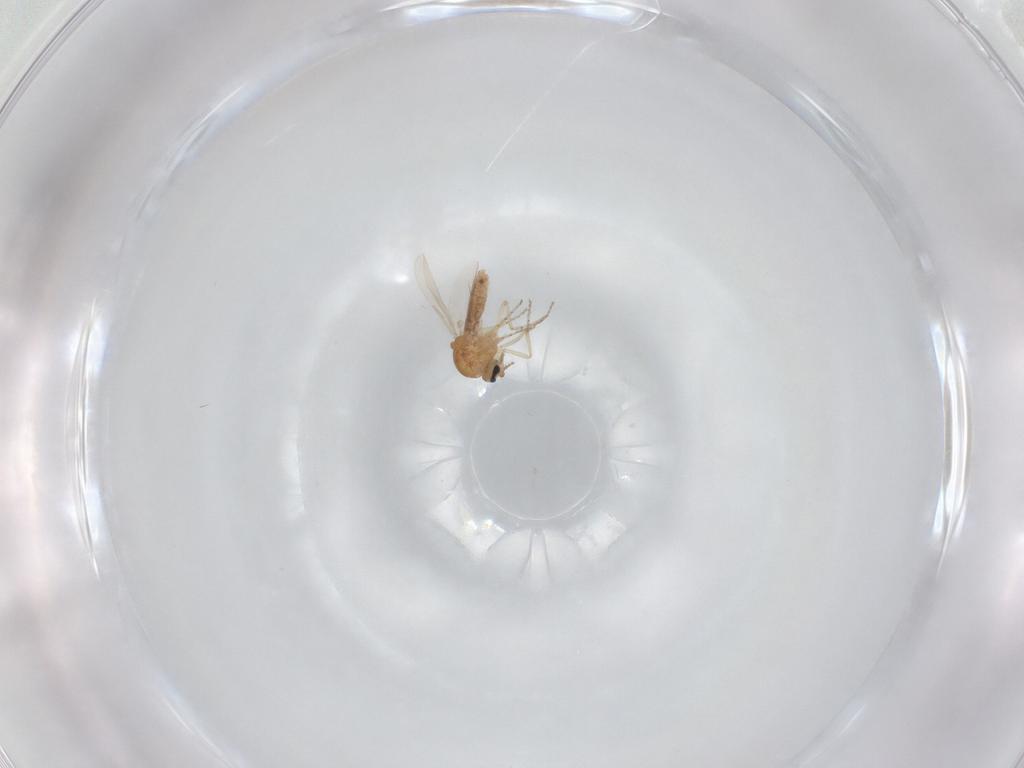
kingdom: Animalia
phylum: Arthropoda
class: Insecta
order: Diptera
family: Ceratopogonidae
